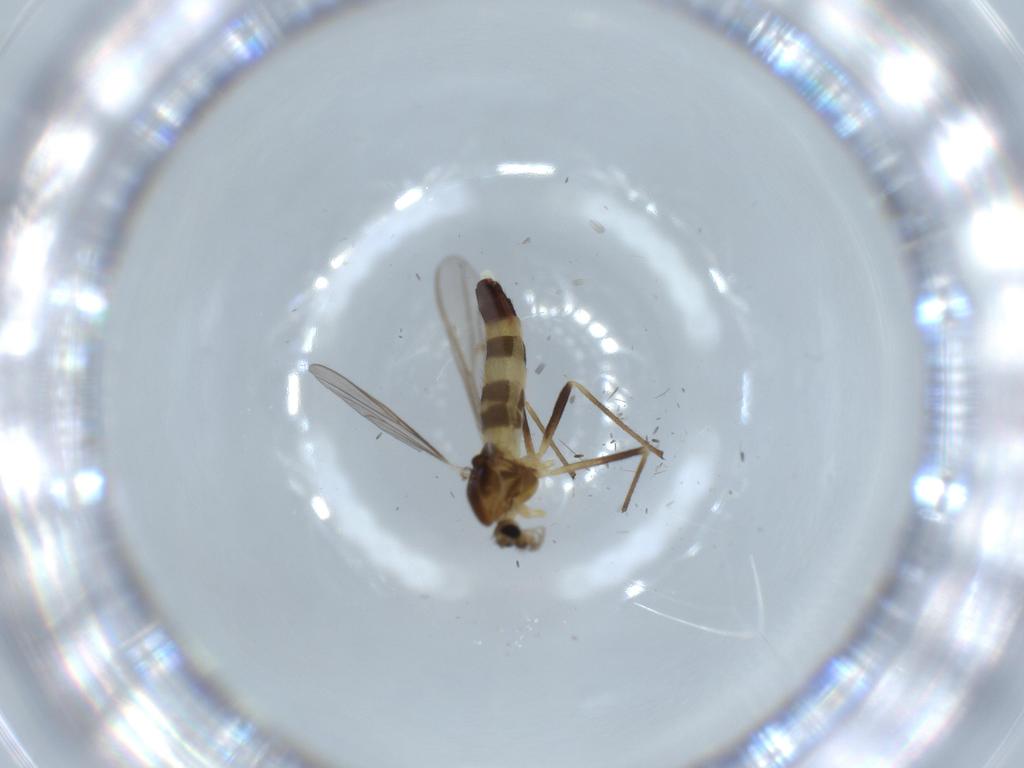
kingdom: Animalia
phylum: Arthropoda
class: Insecta
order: Diptera
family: Chironomidae
